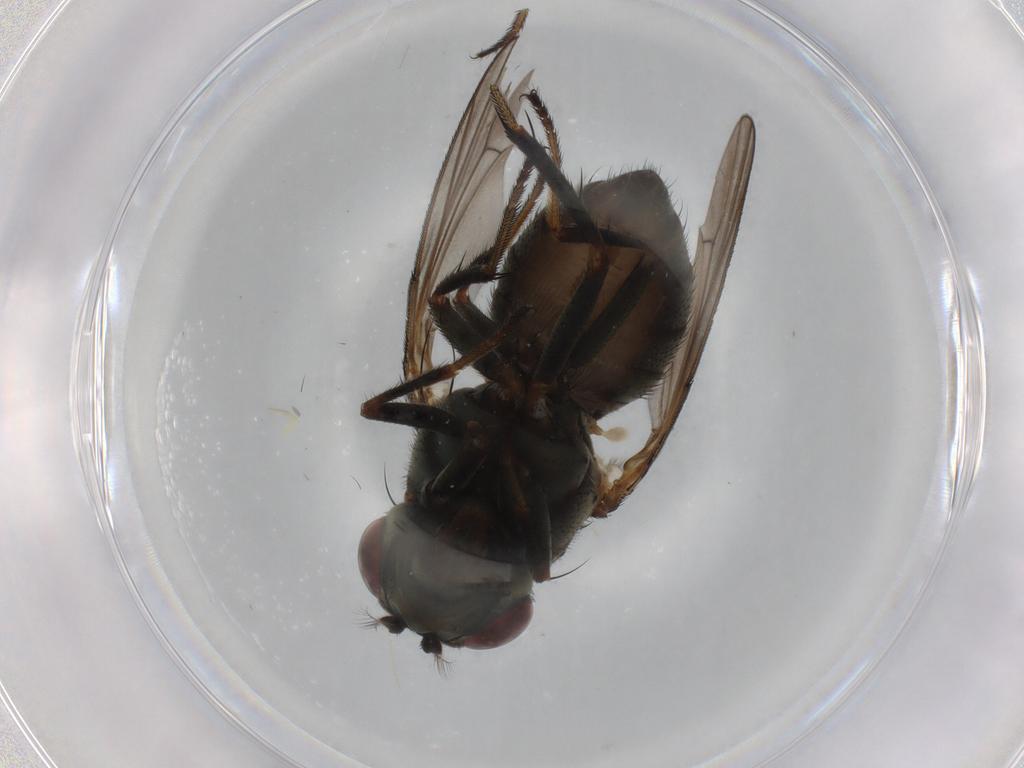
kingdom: Animalia
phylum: Arthropoda
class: Insecta
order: Diptera
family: Ephydridae
